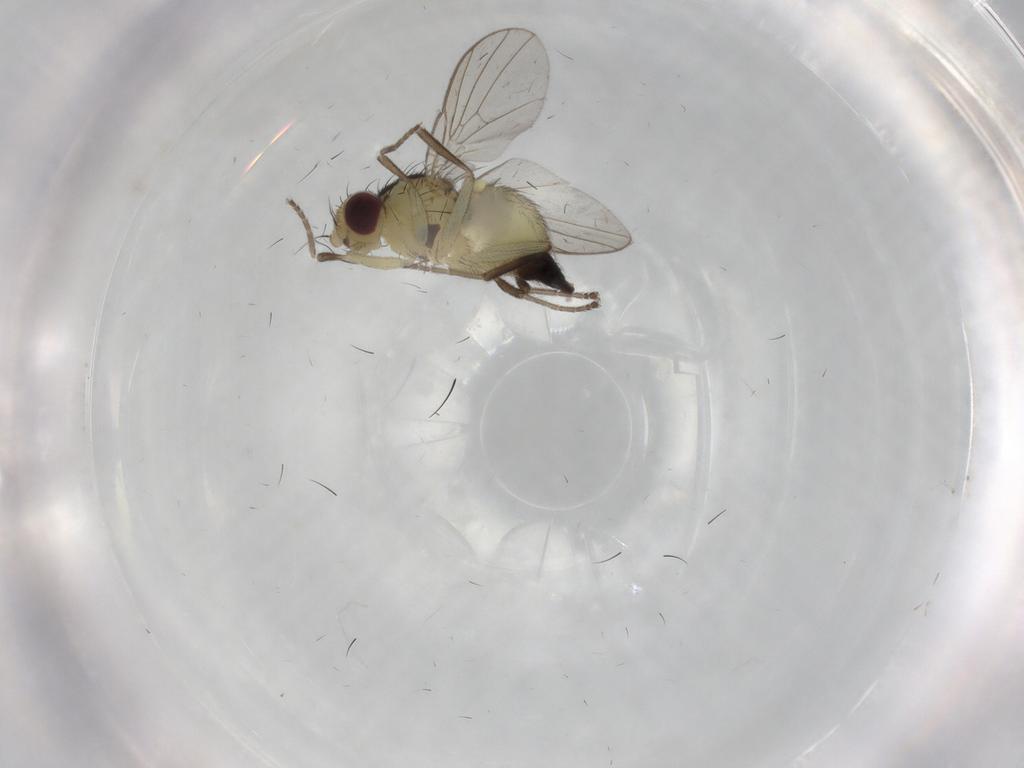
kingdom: Animalia
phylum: Arthropoda
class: Insecta
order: Diptera
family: Agromyzidae
